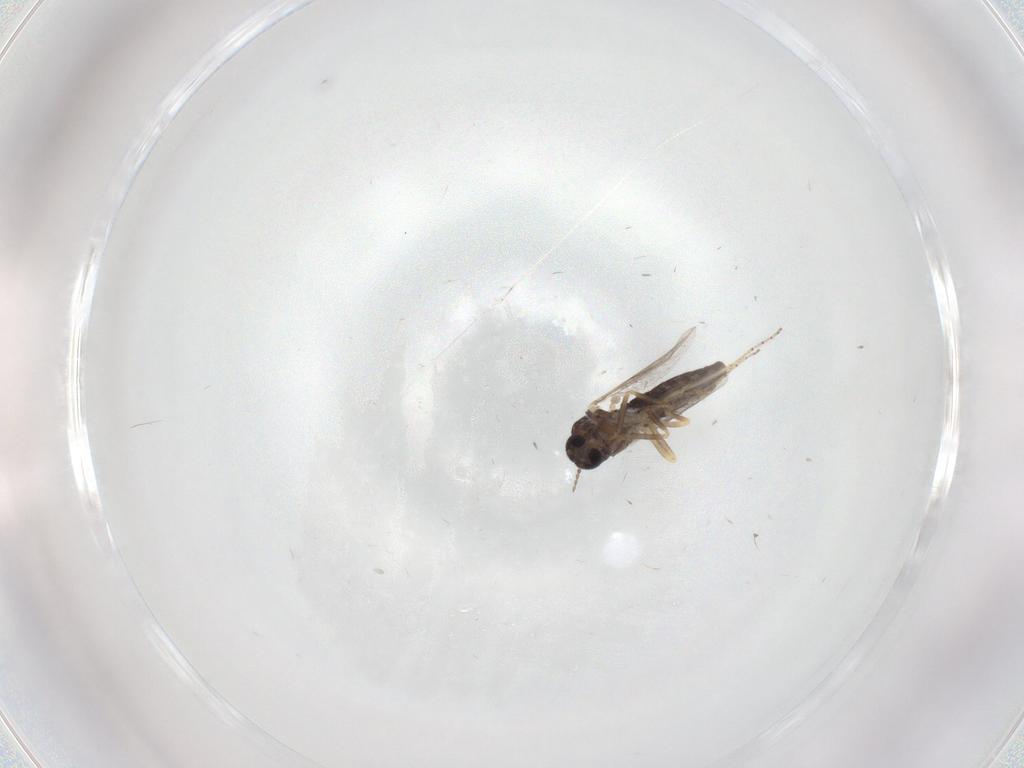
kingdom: Animalia
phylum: Arthropoda
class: Insecta
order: Diptera
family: Ceratopogonidae
